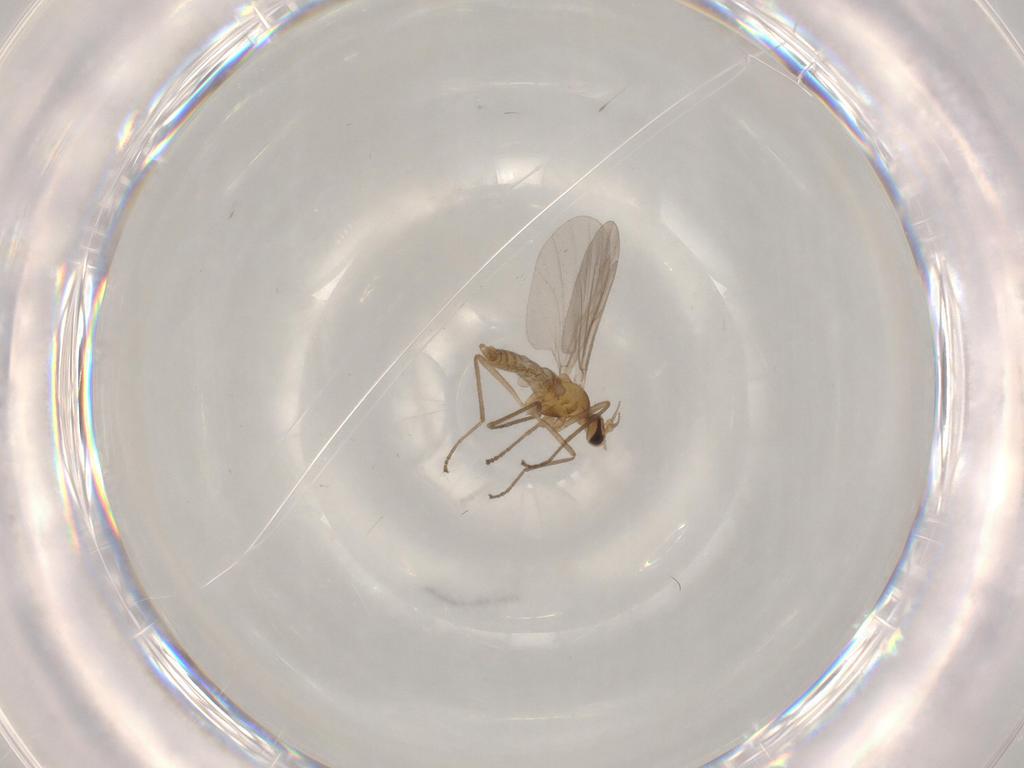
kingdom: Animalia
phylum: Arthropoda
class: Insecta
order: Diptera
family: Cecidomyiidae
